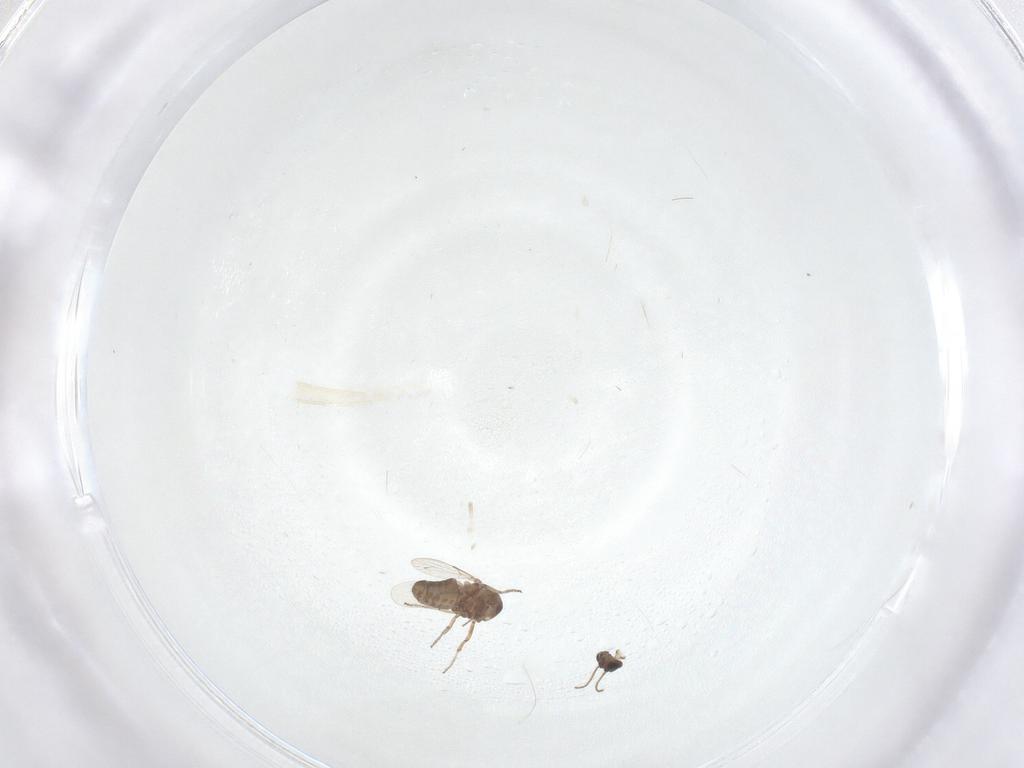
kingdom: Animalia
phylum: Arthropoda
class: Insecta
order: Diptera
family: Ceratopogonidae
